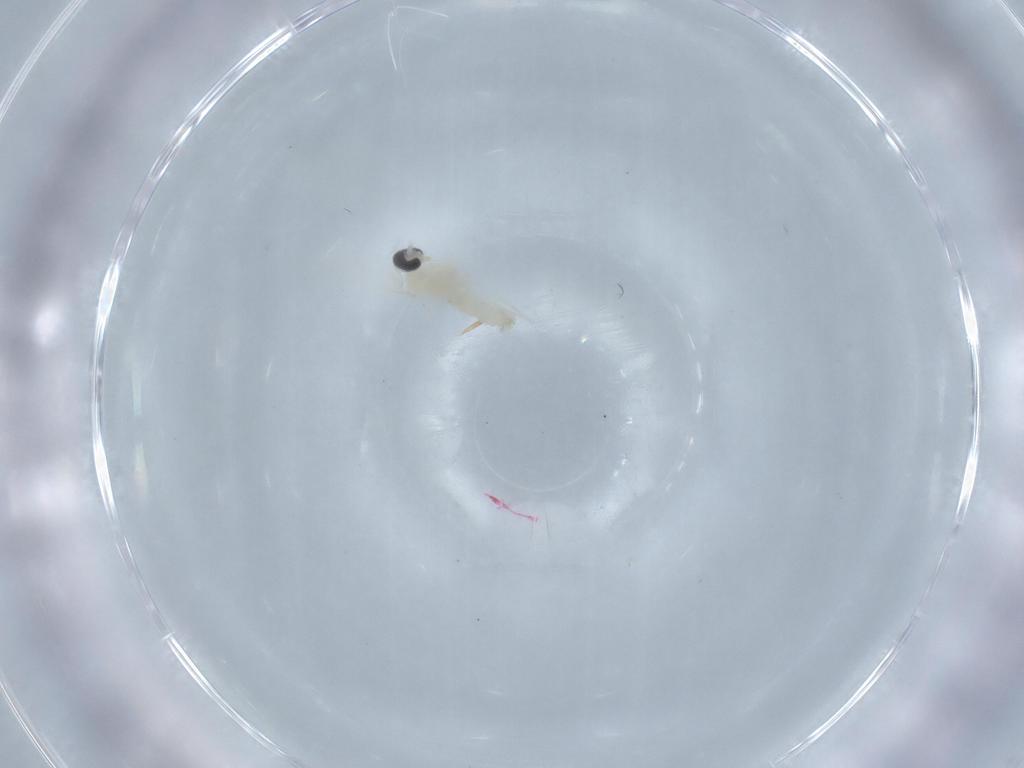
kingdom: Animalia
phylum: Arthropoda
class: Insecta
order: Diptera
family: Cecidomyiidae
